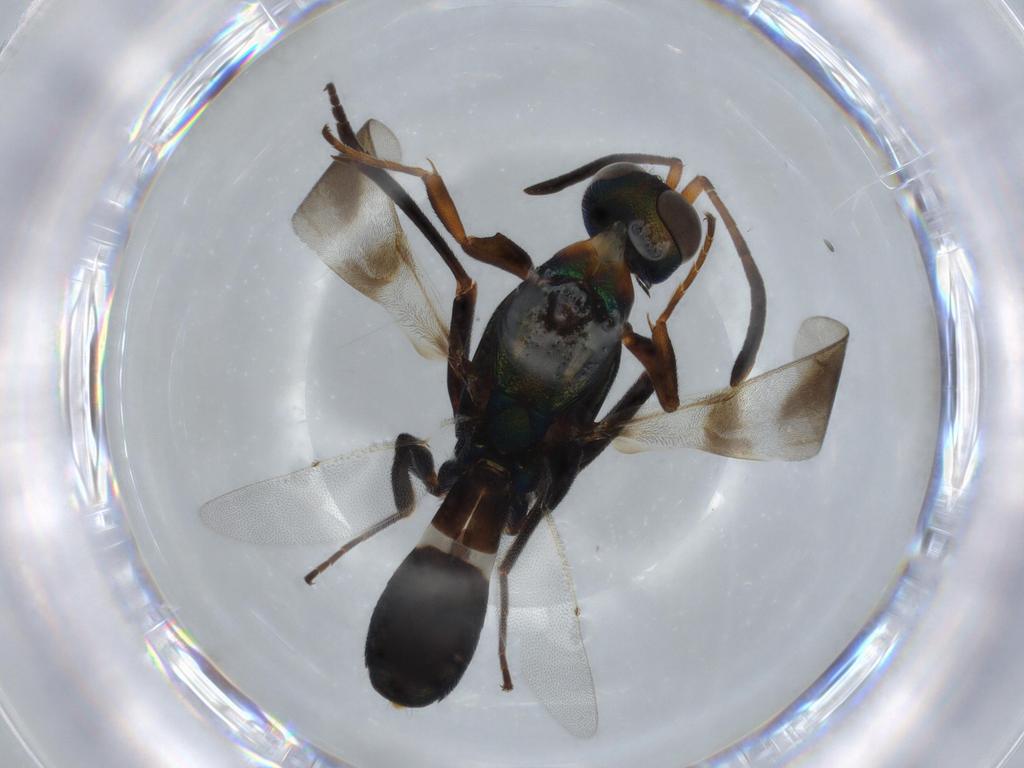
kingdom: Animalia
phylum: Arthropoda
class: Insecta
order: Hymenoptera
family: Eupelmidae
